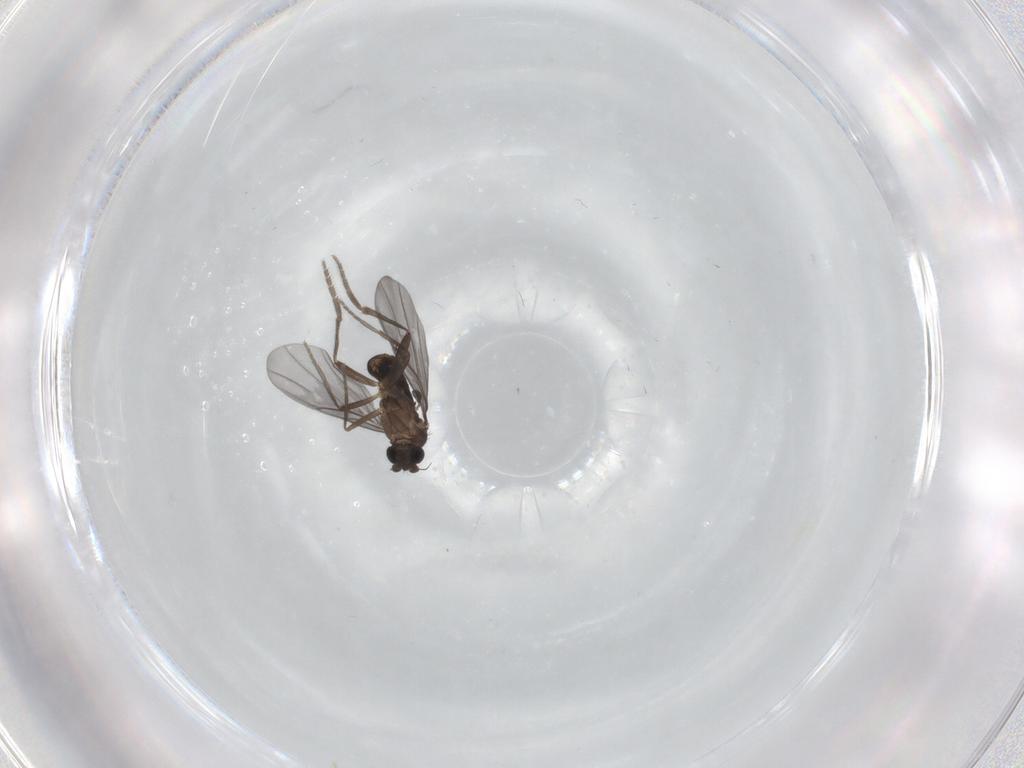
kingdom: Animalia
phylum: Arthropoda
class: Insecta
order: Diptera
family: Phoridae
